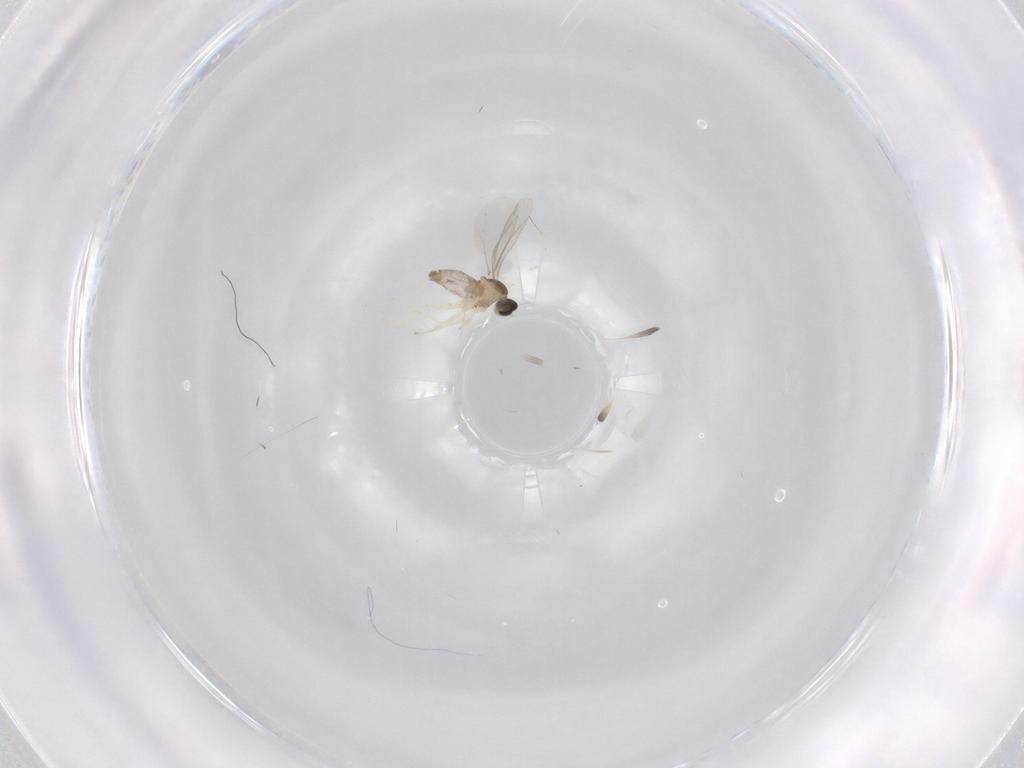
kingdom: Animalia
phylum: Arthropoda
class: Insecta
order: Diptera
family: Cecidomyiidae
